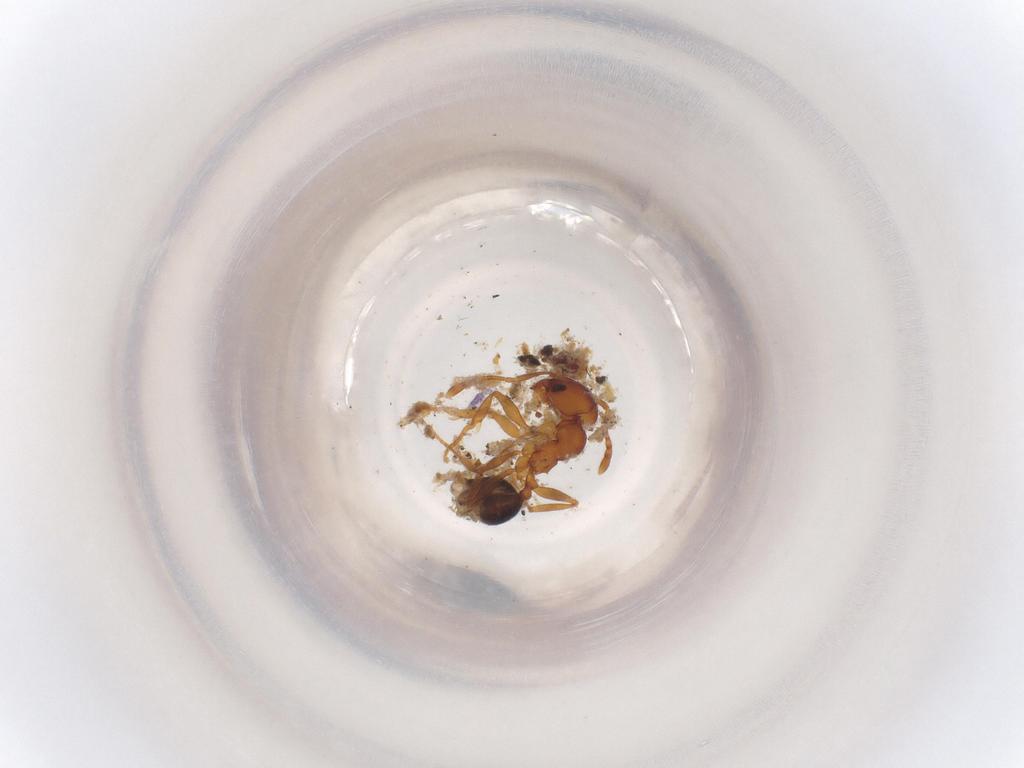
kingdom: Animalia
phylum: Arthropoda
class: Insecta
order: Hymenoptera
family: Formicidae
